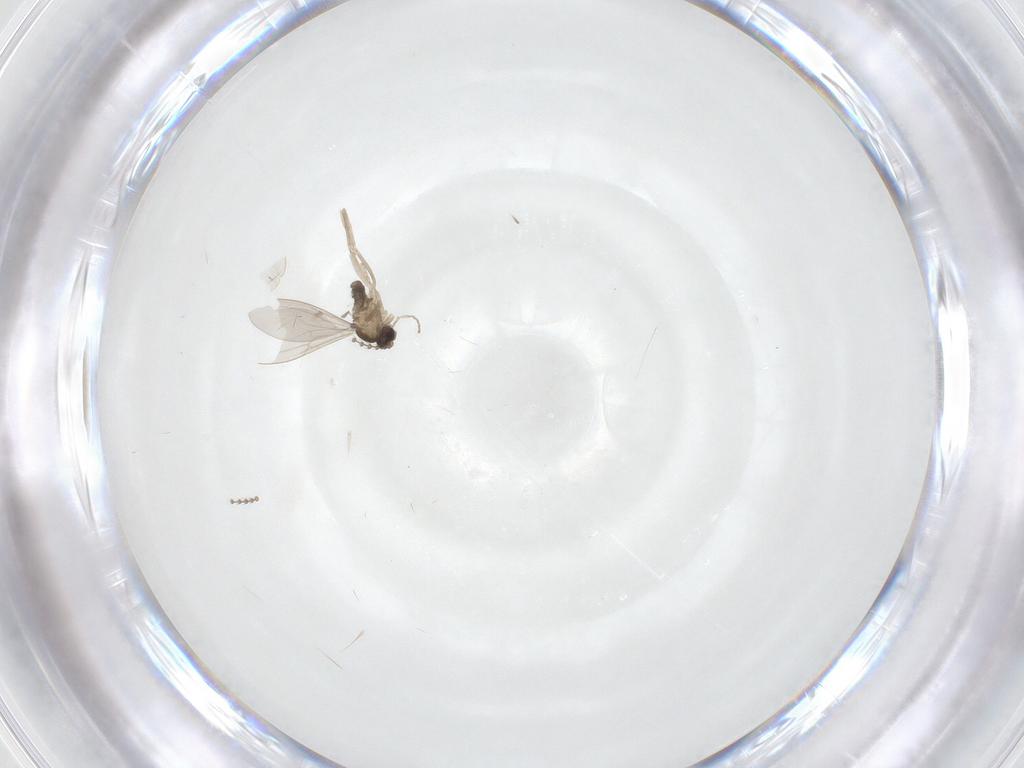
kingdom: Animalia
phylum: Arthropoda
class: Insecta
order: Diptera
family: Cecidomyiidae
